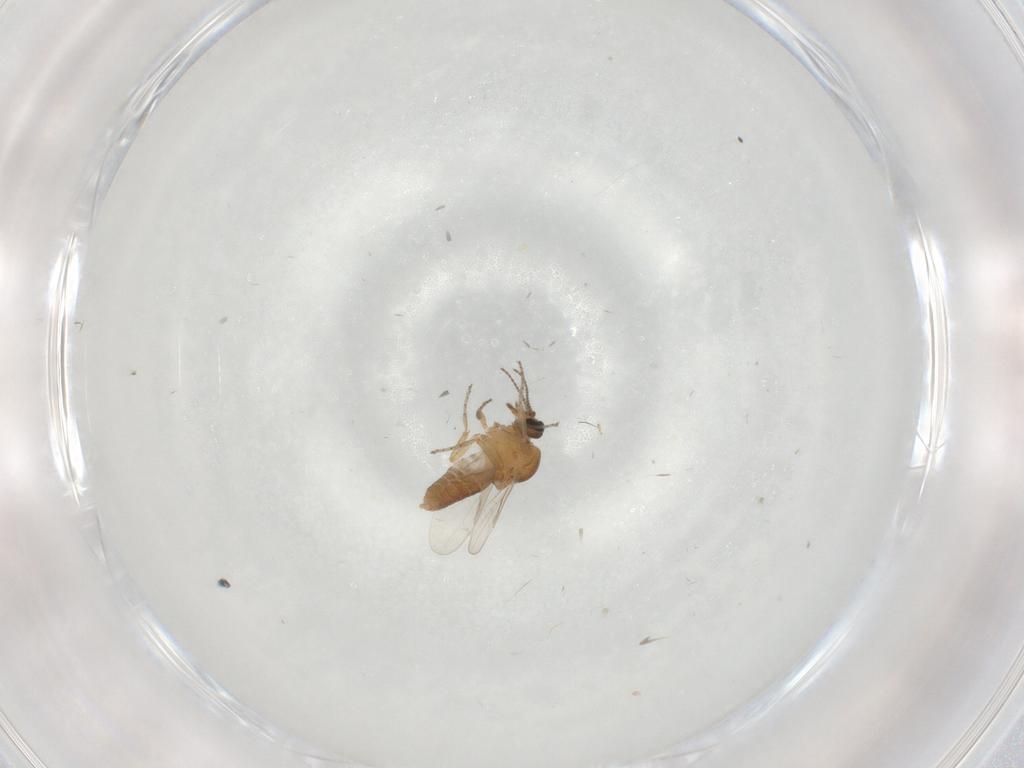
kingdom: Animalia
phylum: Arthropoda
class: Insecta
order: Diptera
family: Ceratopogonidae
